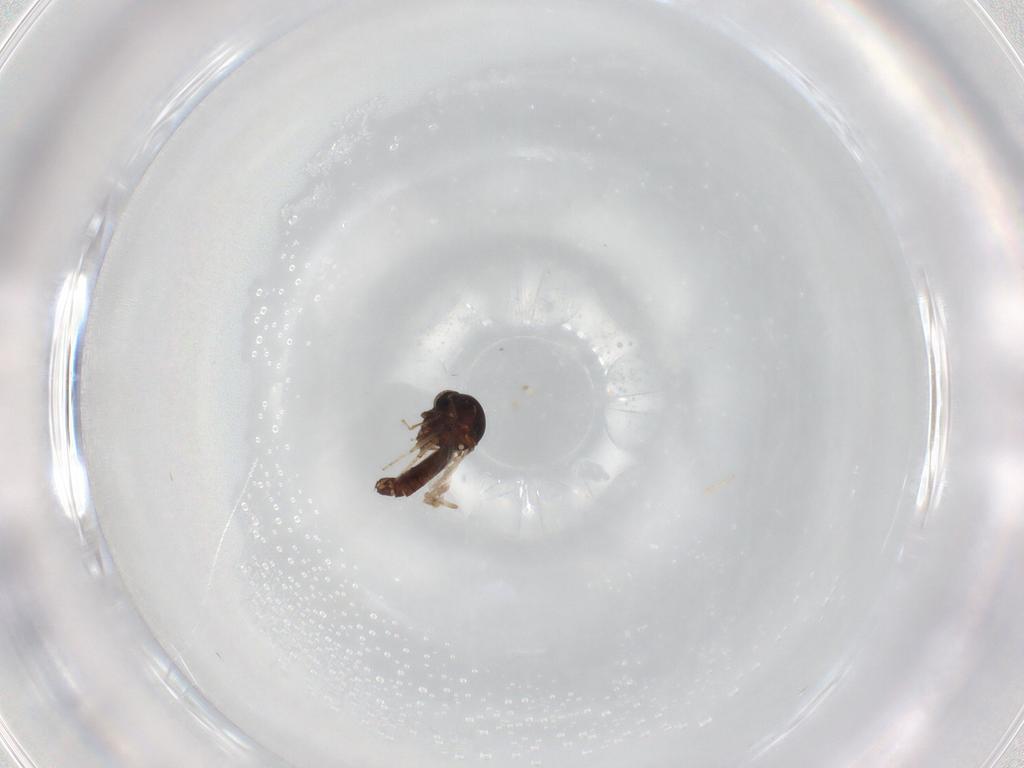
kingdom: Animalia
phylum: Arthropoda
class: Insecta
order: Diptera
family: Ceratopogonidae
